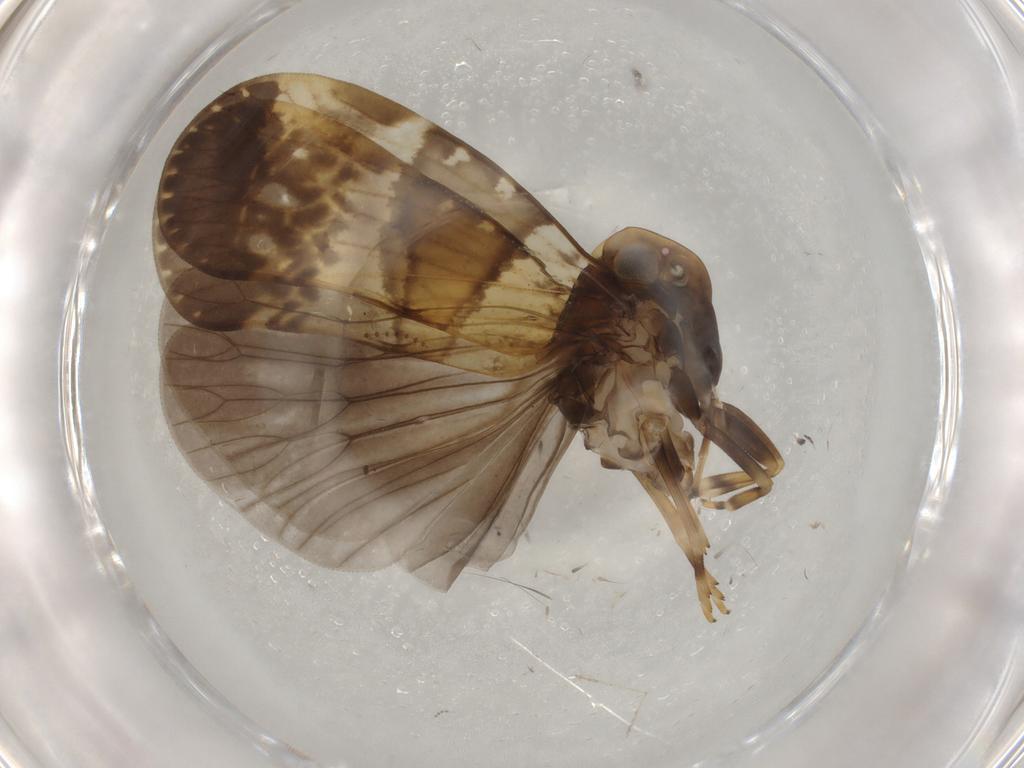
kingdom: Animalia
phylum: Arthropoda
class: Insecta
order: Hemiptera
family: Cixiidae
